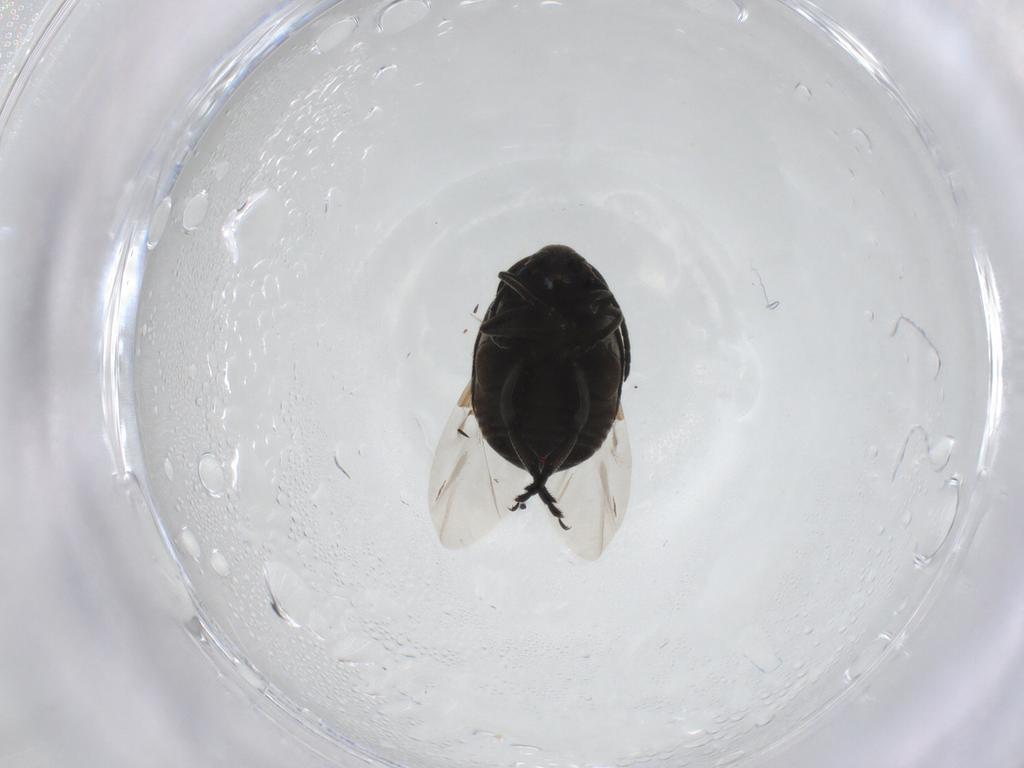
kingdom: Animalia
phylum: Arthropoda
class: Insecta
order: Coleoptera
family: Chrysomelidae
